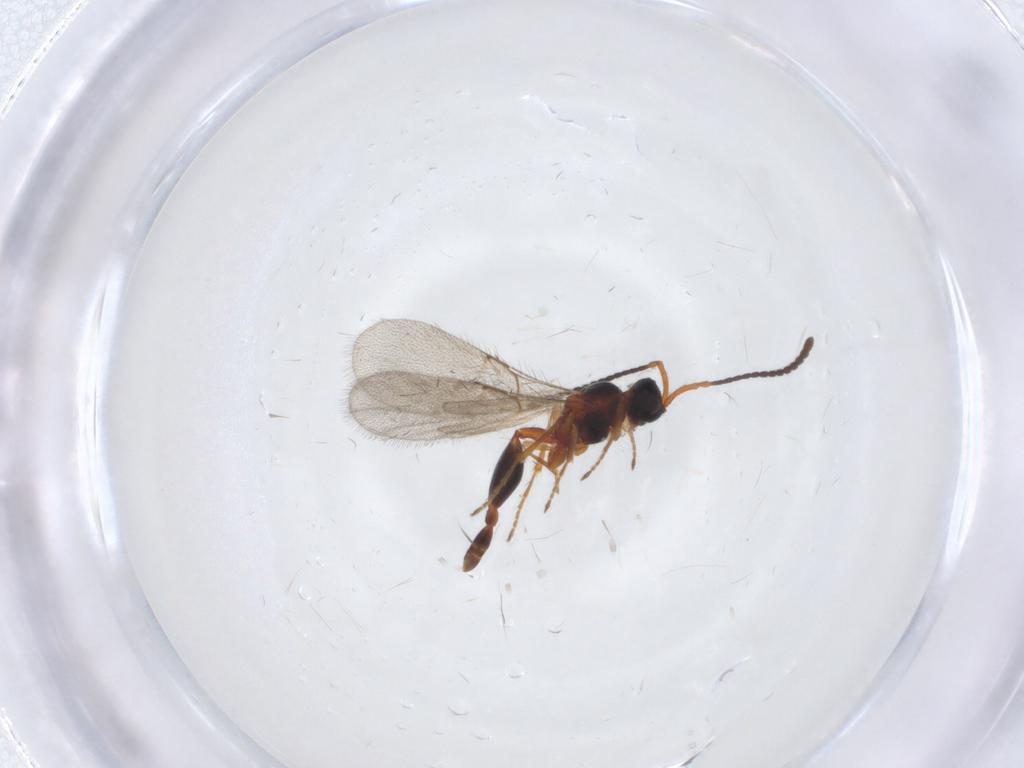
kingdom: Animalia
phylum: Arthropoda
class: Insecta
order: Hymenoptera
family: Diapriidae
